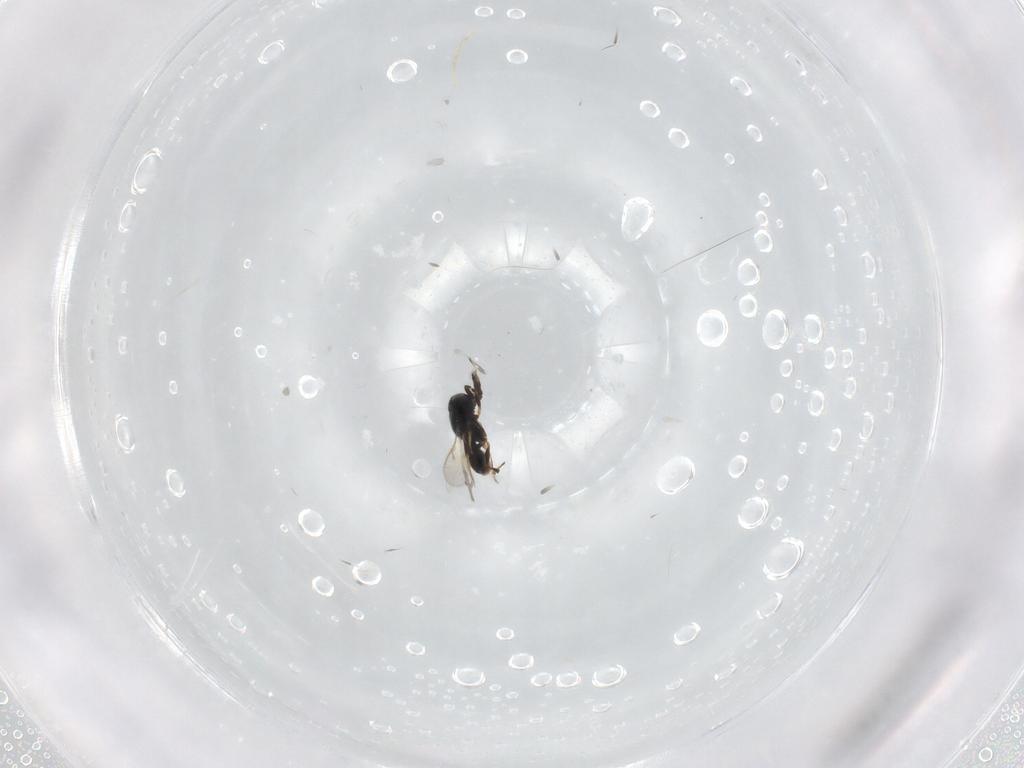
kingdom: Animalia
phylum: Arthropoda
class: Insecta
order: Hymenoptera
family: Scelionidae
